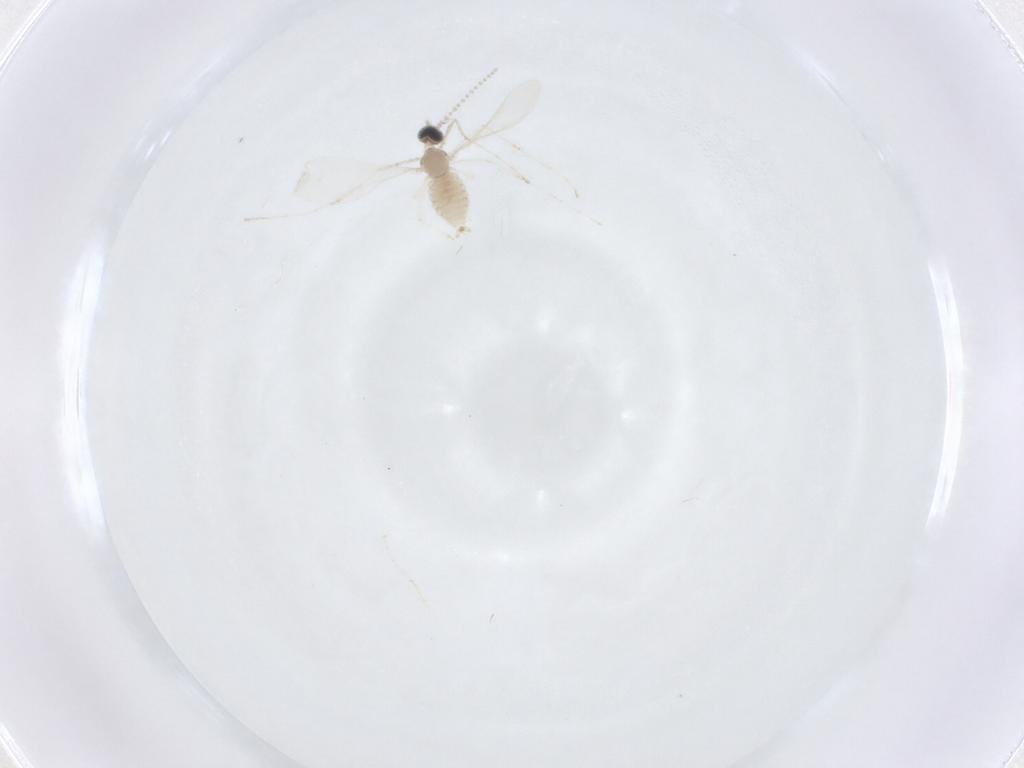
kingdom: Animalia
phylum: Arthropoda
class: Insecta
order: Diptera
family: Cecidomyiidae
